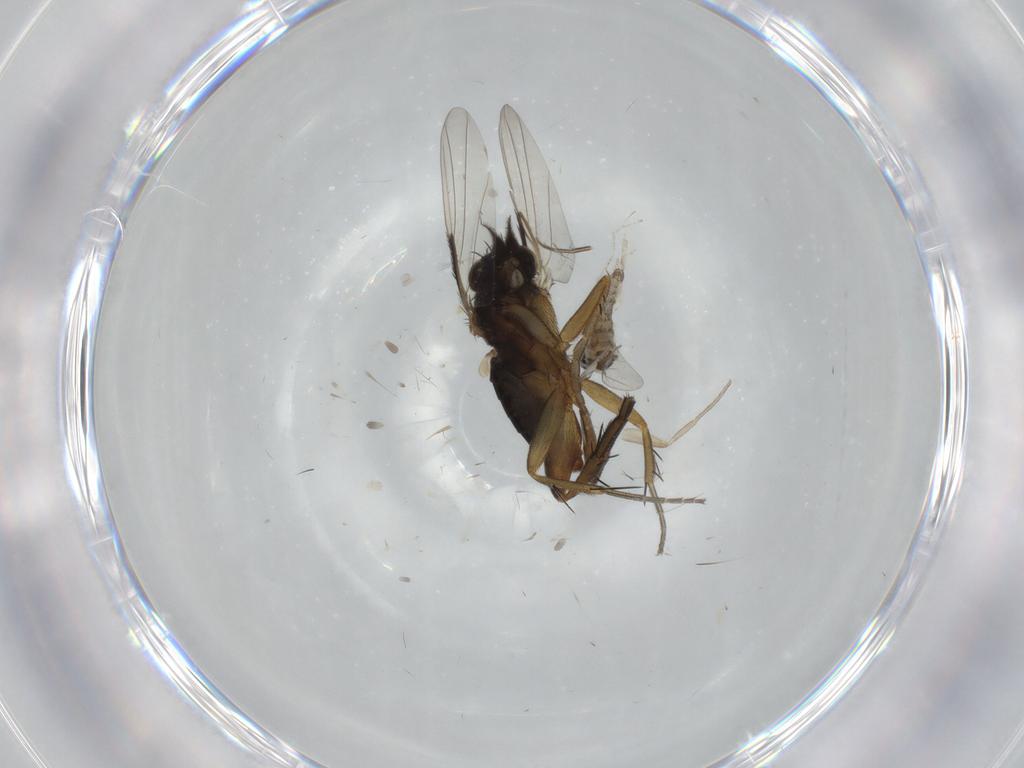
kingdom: Animalia
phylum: Arthropoda
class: Insecta
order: Diptera
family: Phoridae
